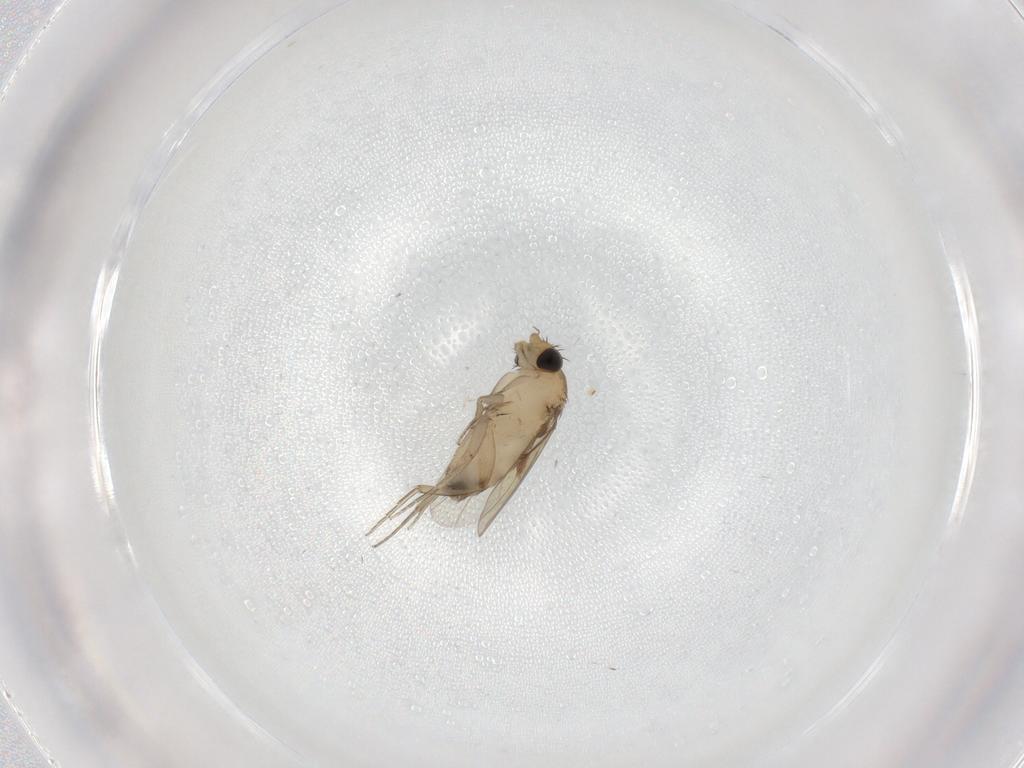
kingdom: Animalia
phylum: Arthropoda
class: Insecta
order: Diptera
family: Phoridae
